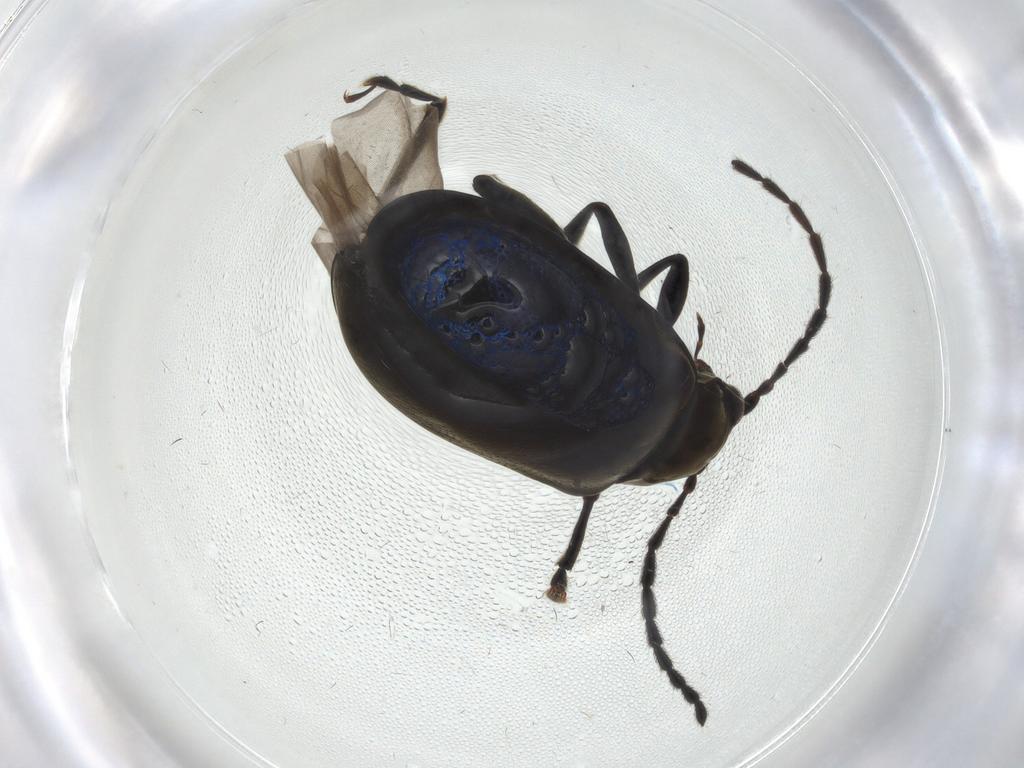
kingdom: Animalia
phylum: Arthropoda
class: Insecta
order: Coleoptera
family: Chrysomelidae
